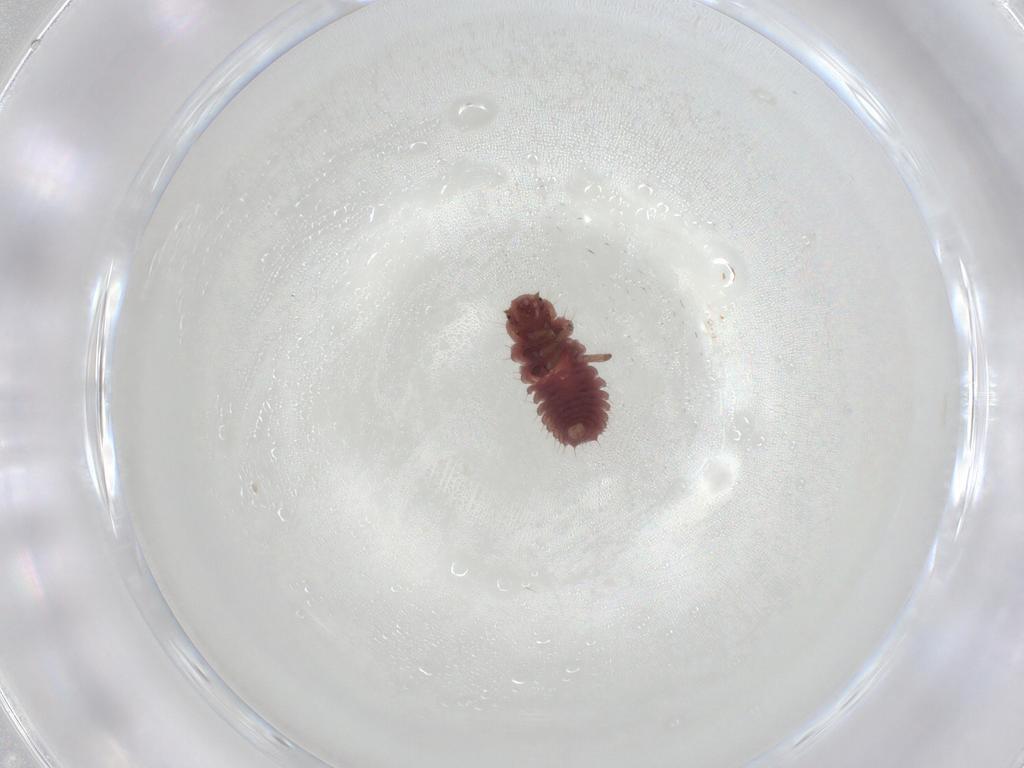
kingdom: Animalia
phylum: Arthropoda
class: Insecta
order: Coleoptera
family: Coccinellidae
